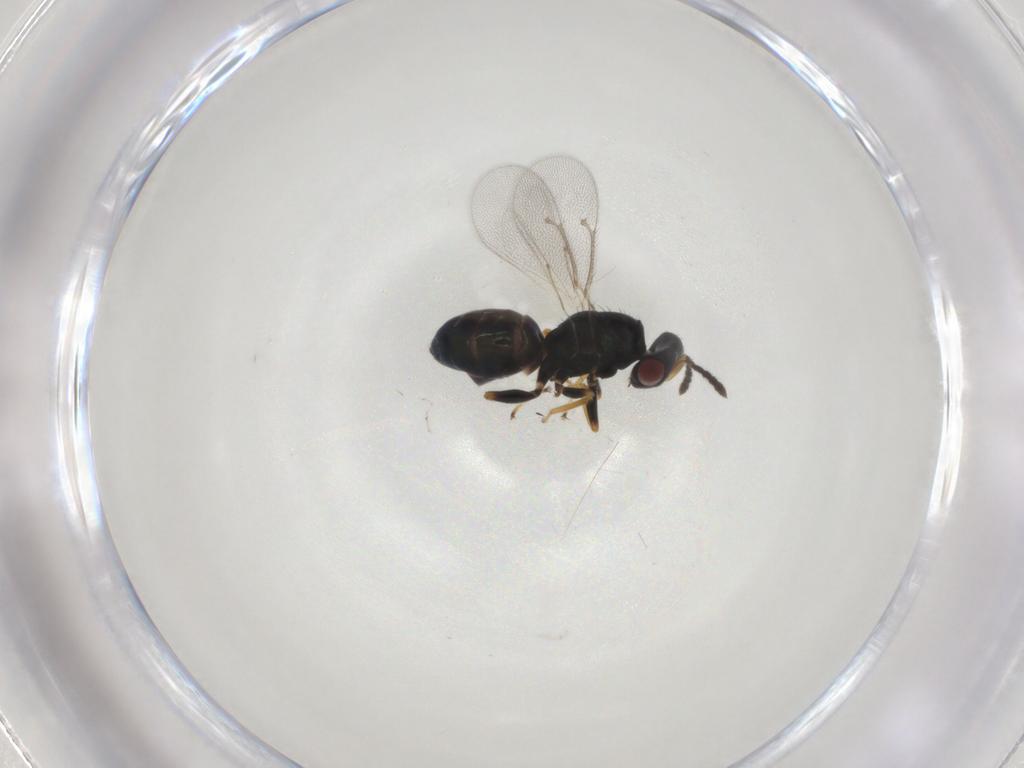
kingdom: Animalia
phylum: Arthropoda
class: Insecta
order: Hymenoptera
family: Eulophidae
